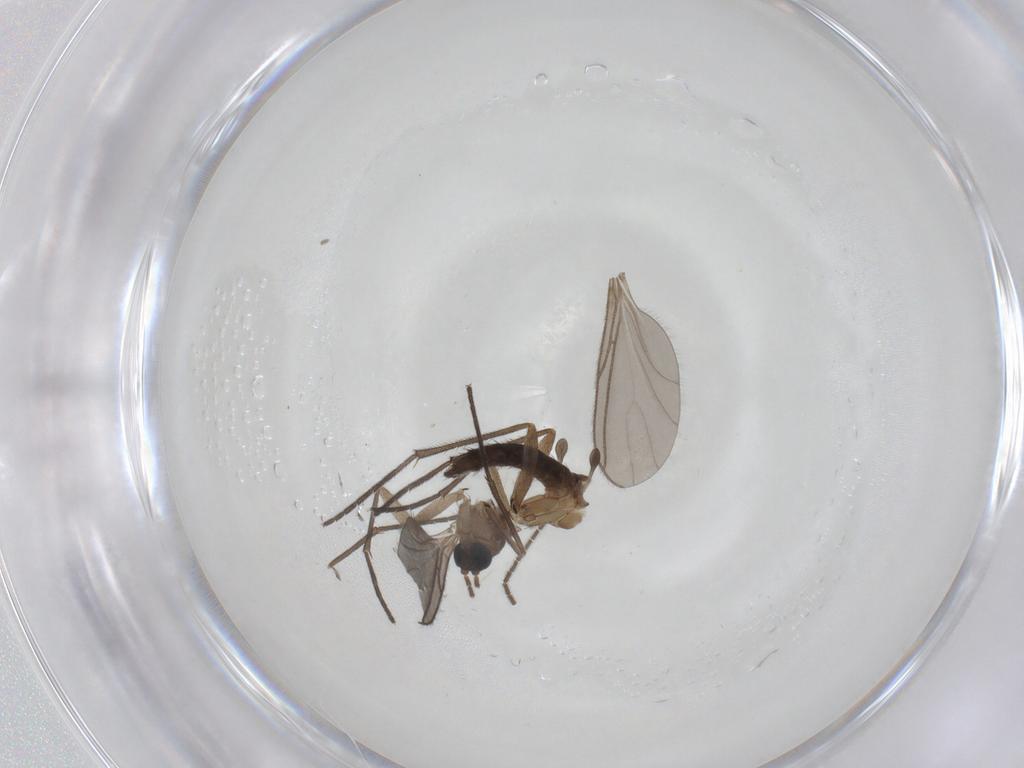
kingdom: Animalia
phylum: Arthropoda
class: Insecta
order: Diptera
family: Sciaridae
